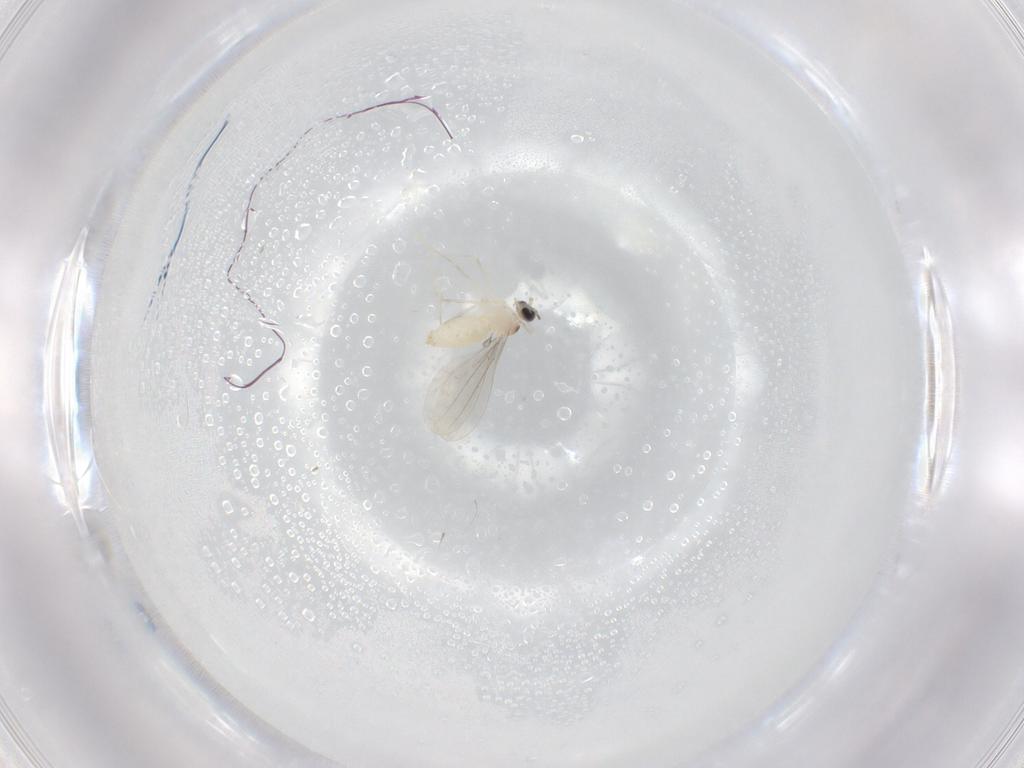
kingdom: Animalia
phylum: Arthropoda
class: Insecta
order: Diptera
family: Cecidomyiidae
